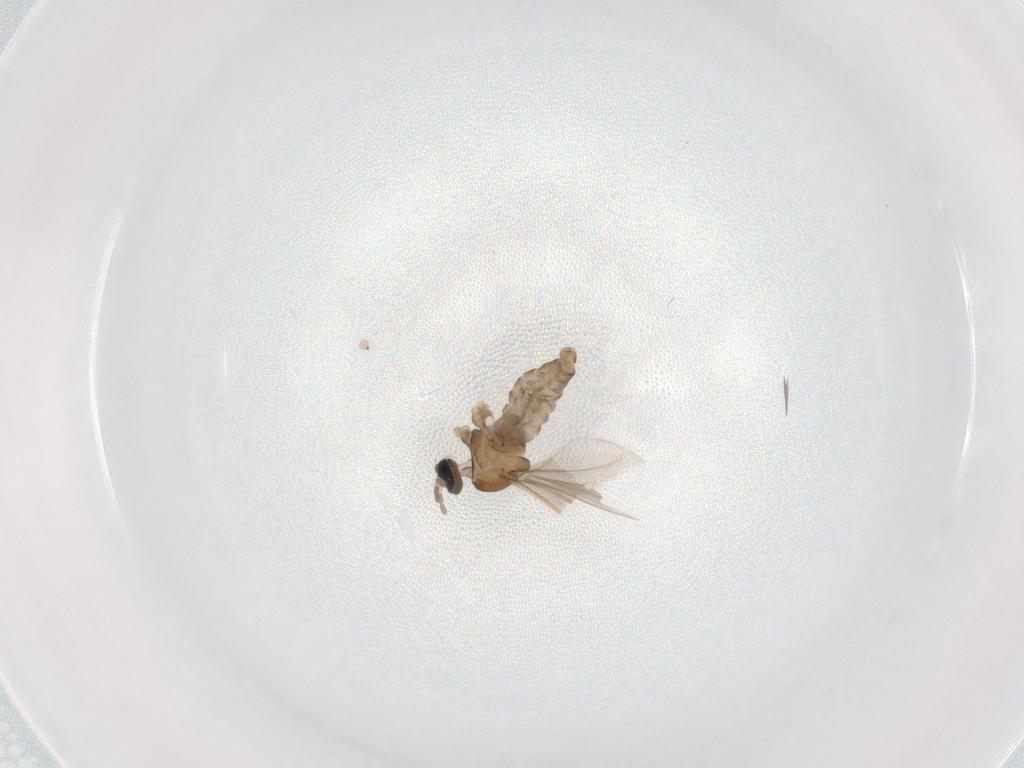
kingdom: Animalia
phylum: Arthropoda
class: Insecta
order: Diptera
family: Cecidomyiidae
